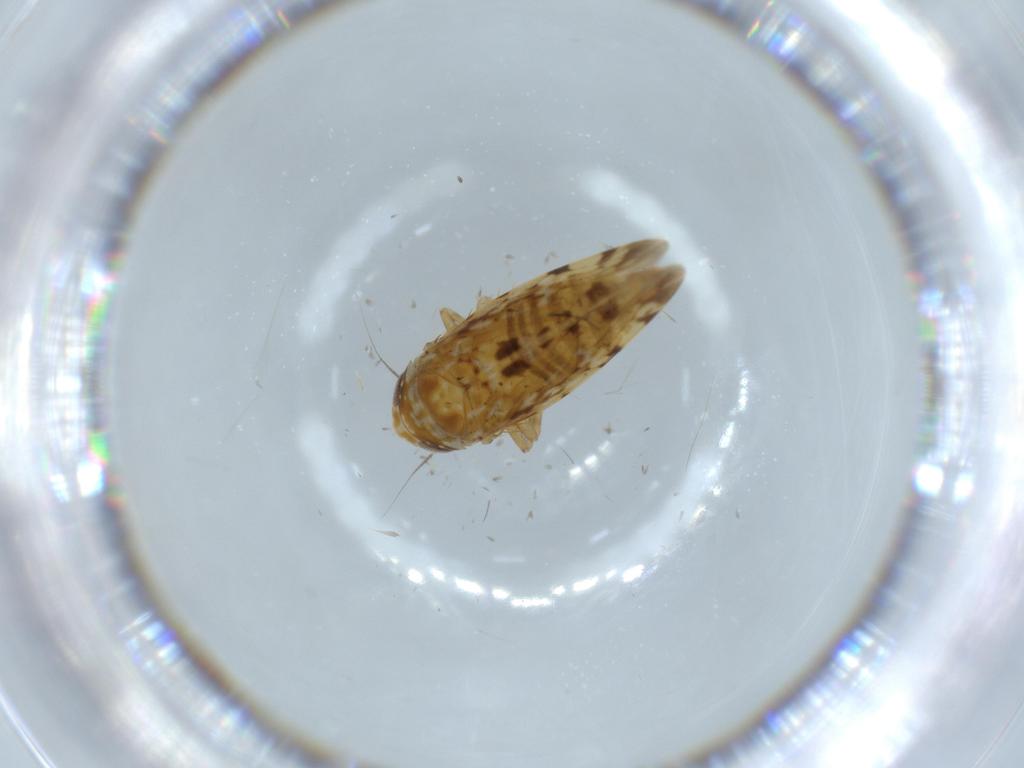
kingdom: Animalia
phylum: Arthropoda
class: Insecta
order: Hemiptera
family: Cicadellidae
